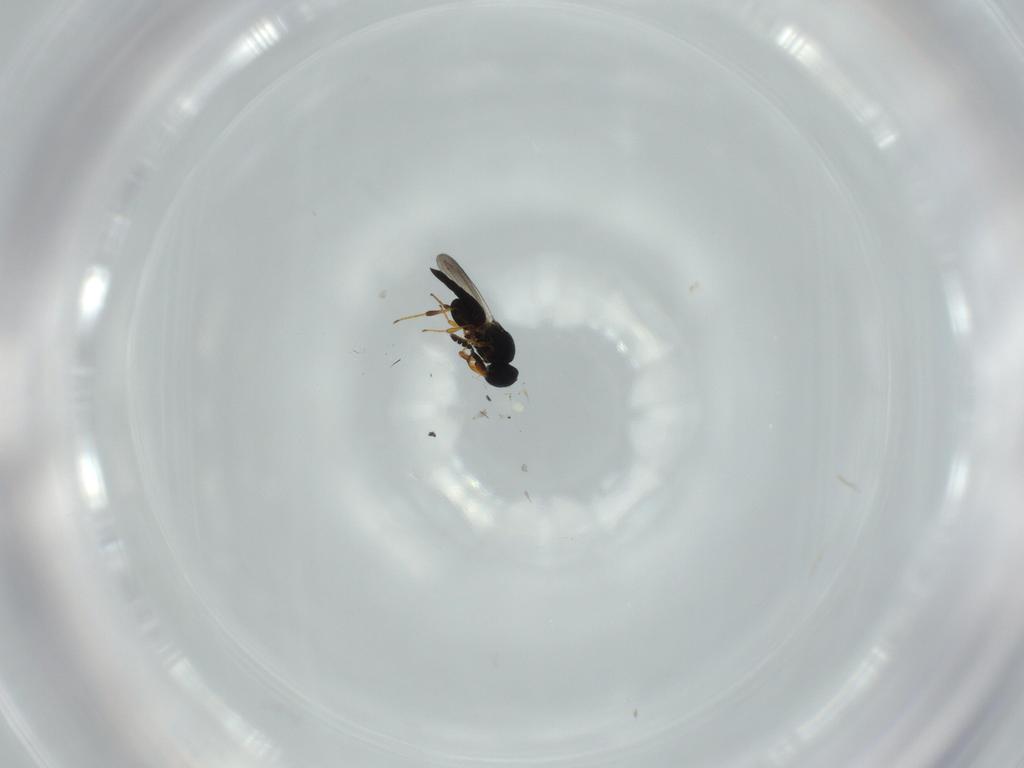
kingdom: Animalia
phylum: Arthropoda
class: Insecta
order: Hymenoptera
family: Platygastridae
